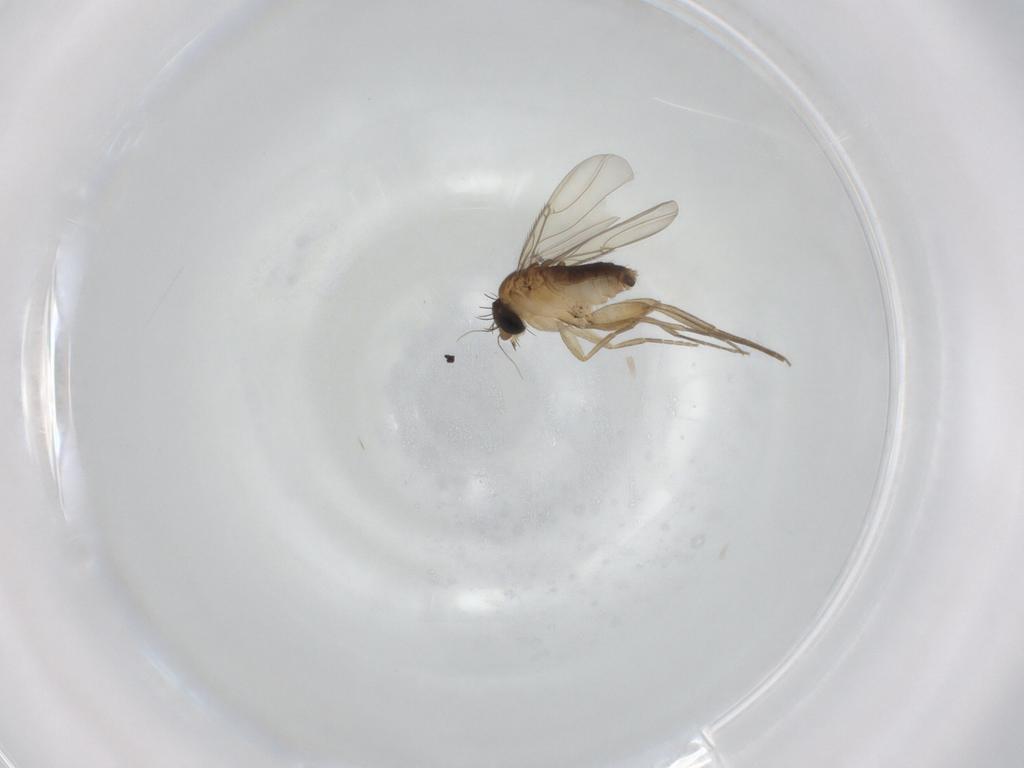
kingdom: Animalia
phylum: Arthropoda
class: Insecta
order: Diptera
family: Phoridae
